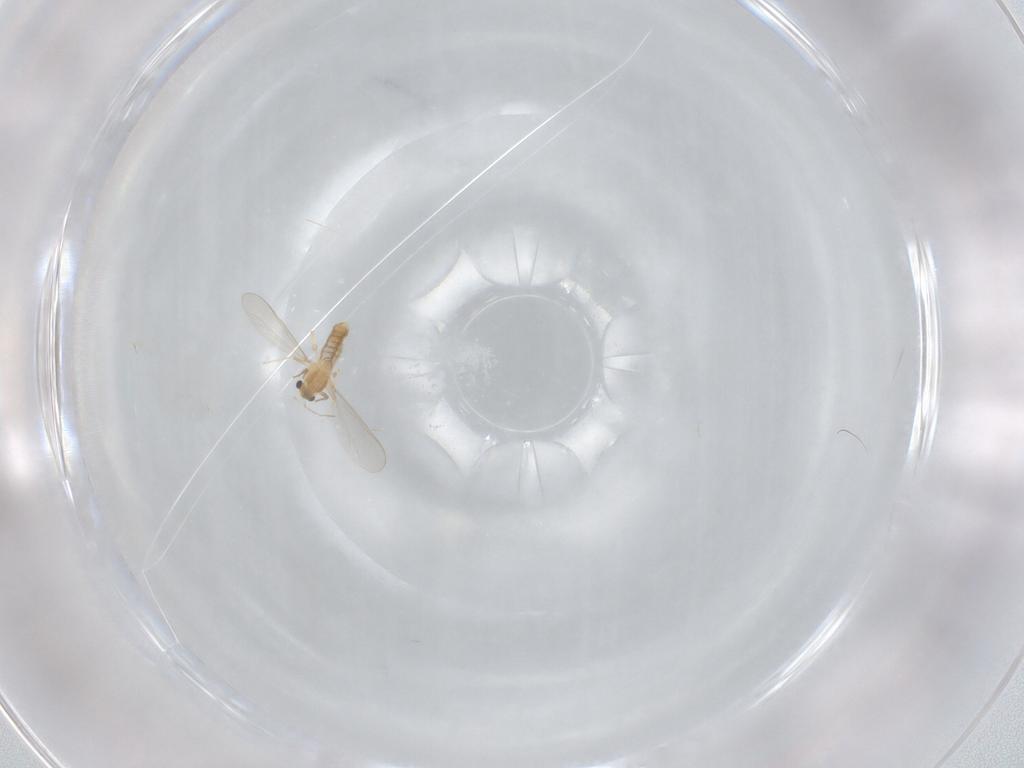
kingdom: Animalia
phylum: Arthropoda
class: Insecta
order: Diptera
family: Chironomidae
